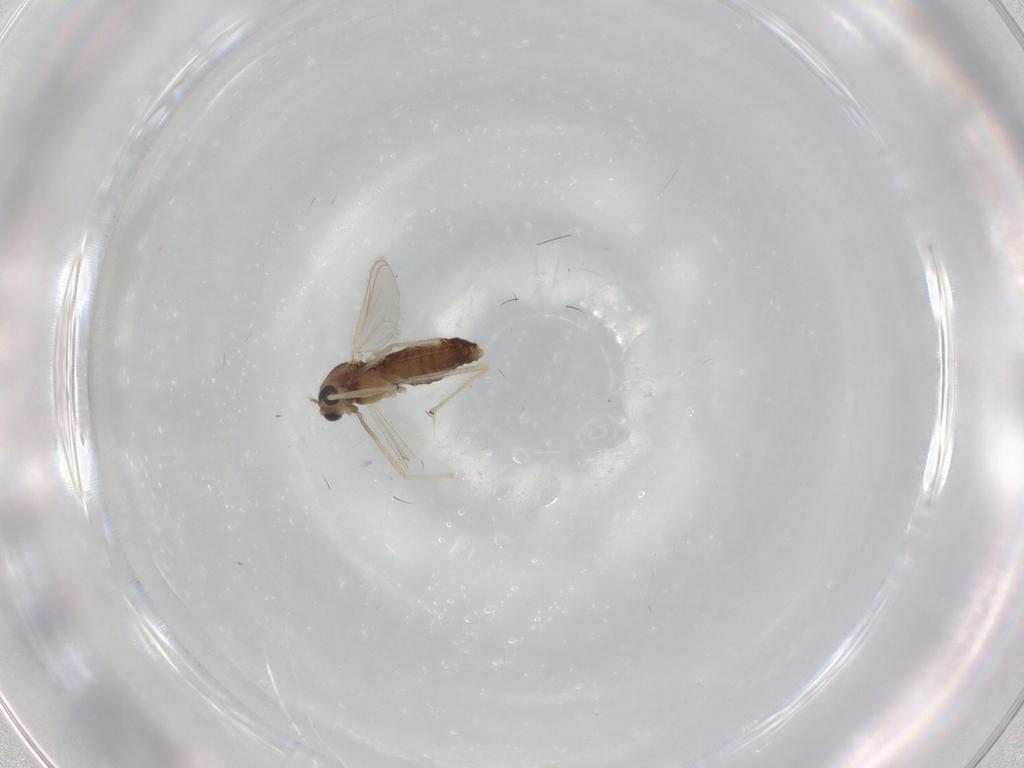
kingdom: Animalia
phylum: Arthropoda
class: Insecta
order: Diptera
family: Chironomidae
